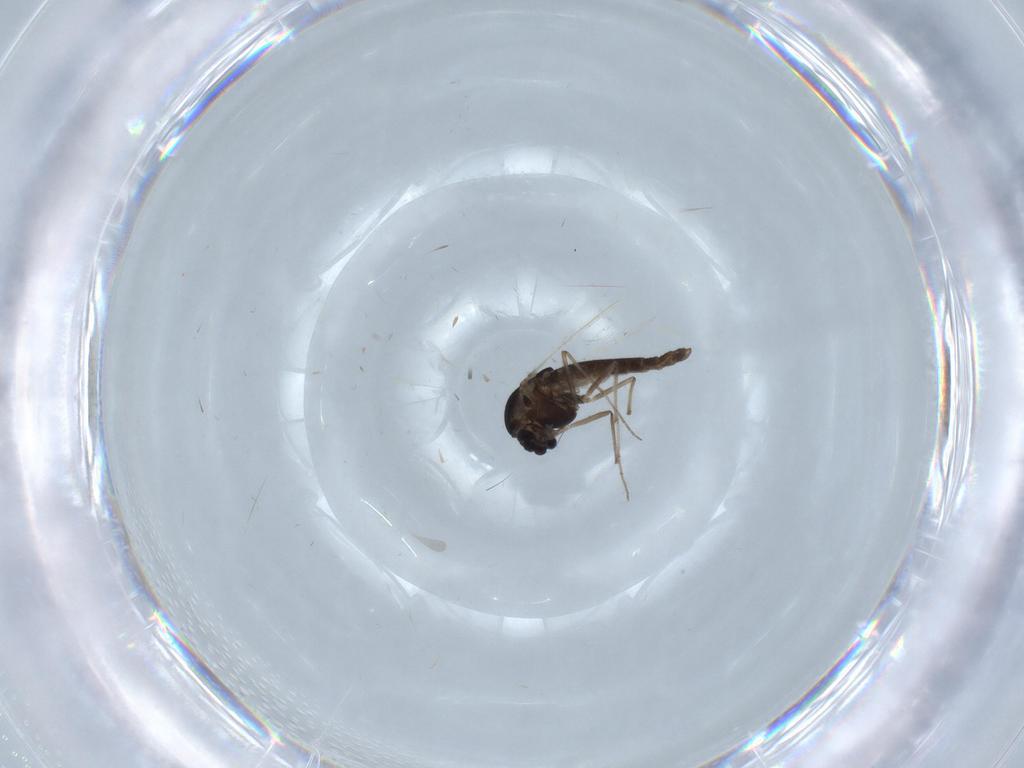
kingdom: Animalia
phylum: Arthropoda
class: Insecta
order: Diptera
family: Chironomidae
